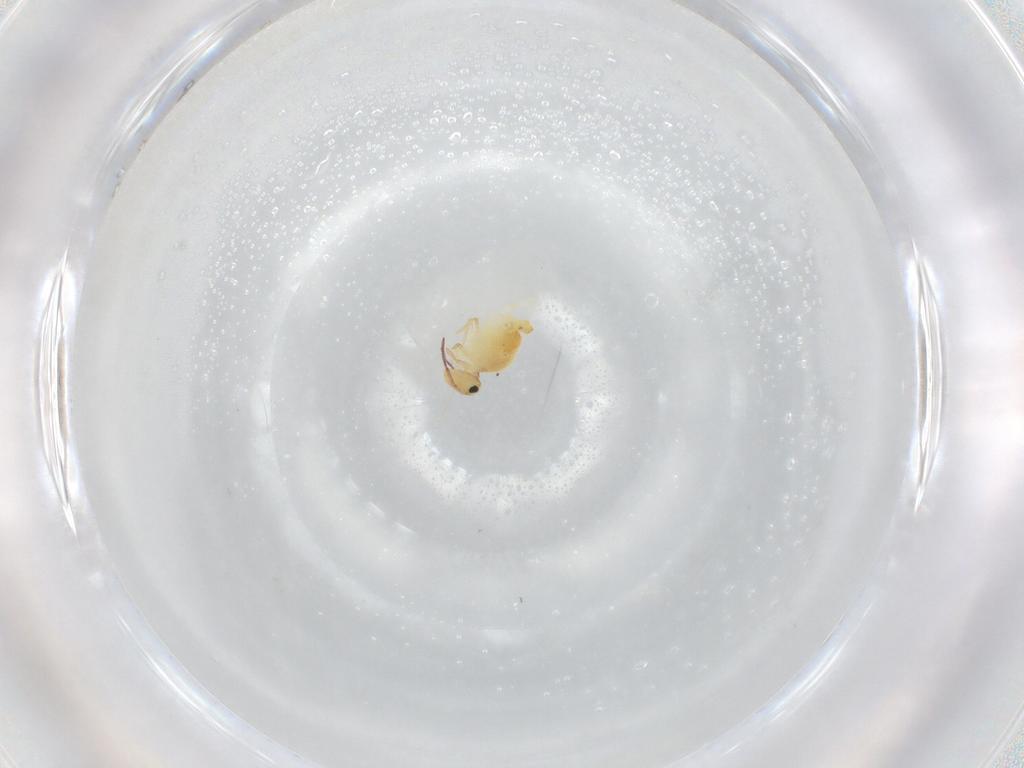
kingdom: Animalia
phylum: Arthropoda
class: Collembola
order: Symphypleona
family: Bourletiellidae
